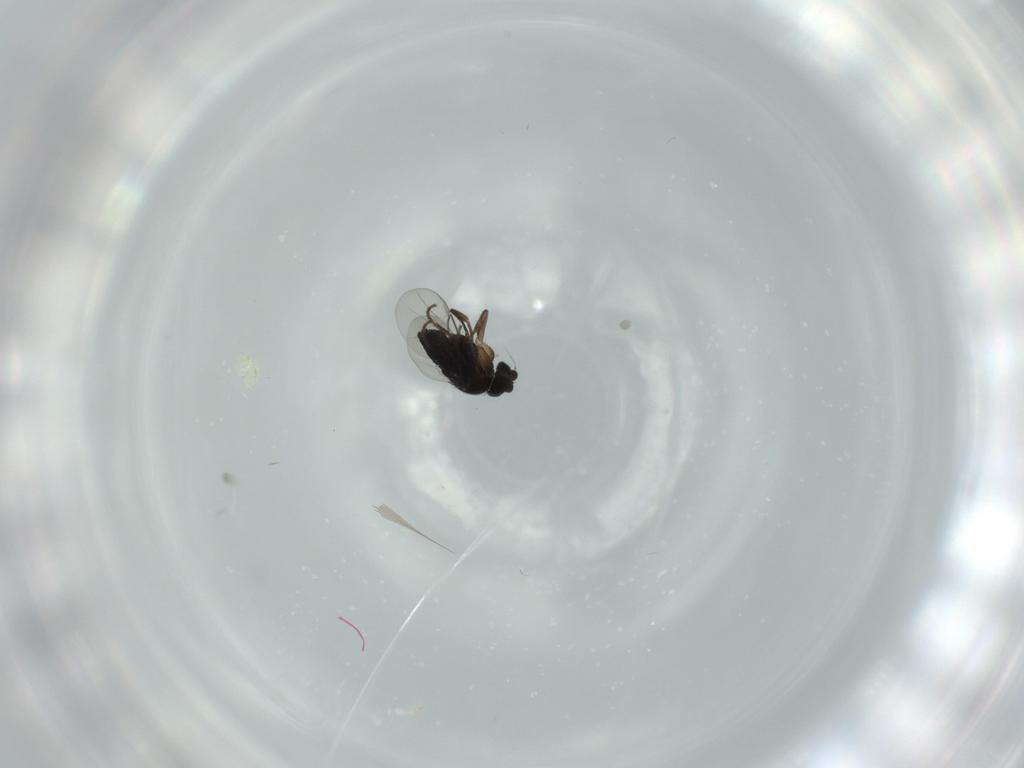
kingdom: Animalia
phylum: Arthropoda
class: Insecta
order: Diptera
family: Phoridae
